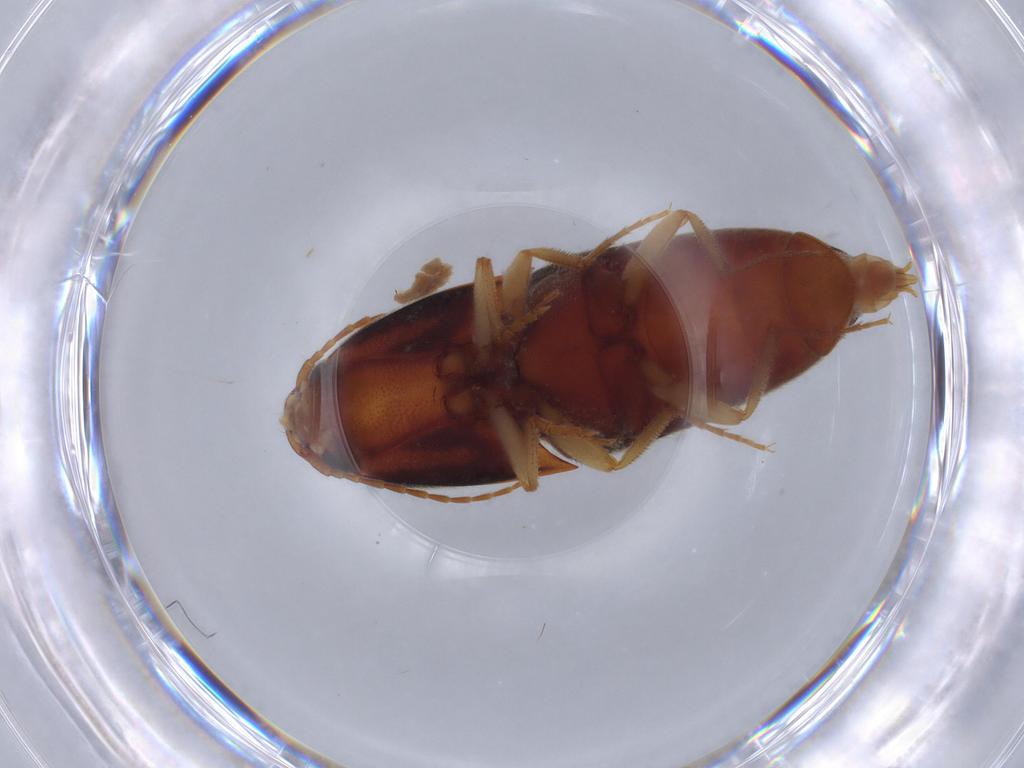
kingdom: Animalia
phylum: Arthropoda
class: Insecta
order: Coleoptera
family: Elateridae
